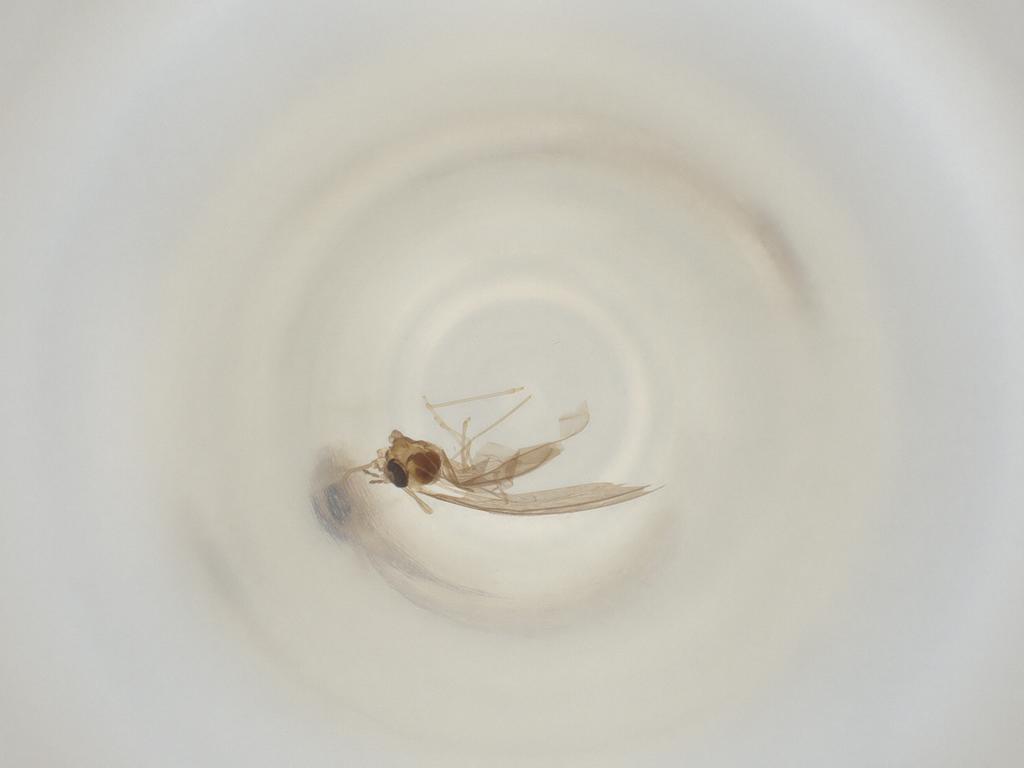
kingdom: Animalia
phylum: Arthropoda
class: Insecta
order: Diptera
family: Cecidomyiidae
